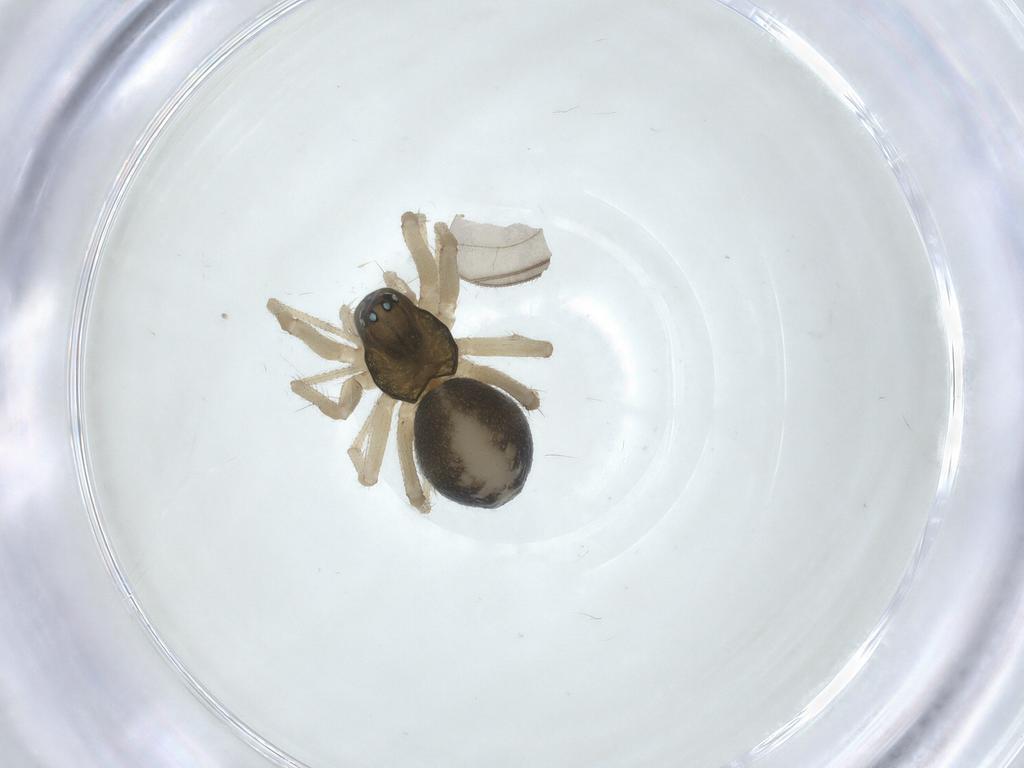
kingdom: Animalia
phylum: Arthropoda
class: Arachnida
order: Araneae
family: Linyphiidae
